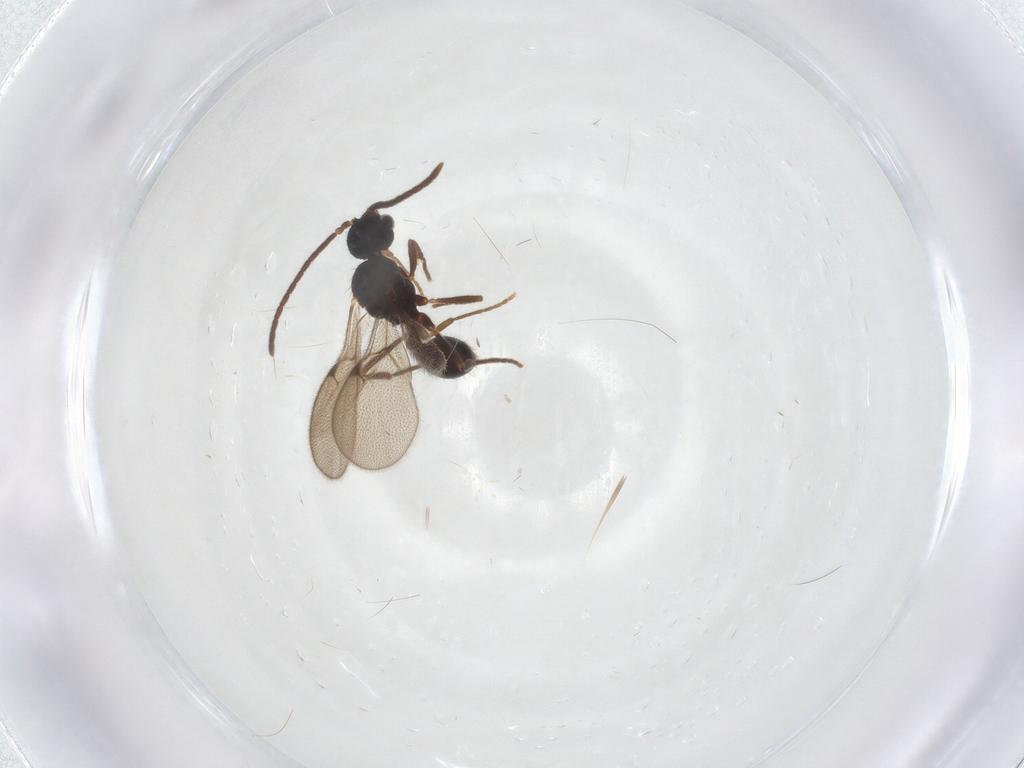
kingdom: Animalia
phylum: Arthropoda
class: Insecta
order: Hymenoptera
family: Formicidae
